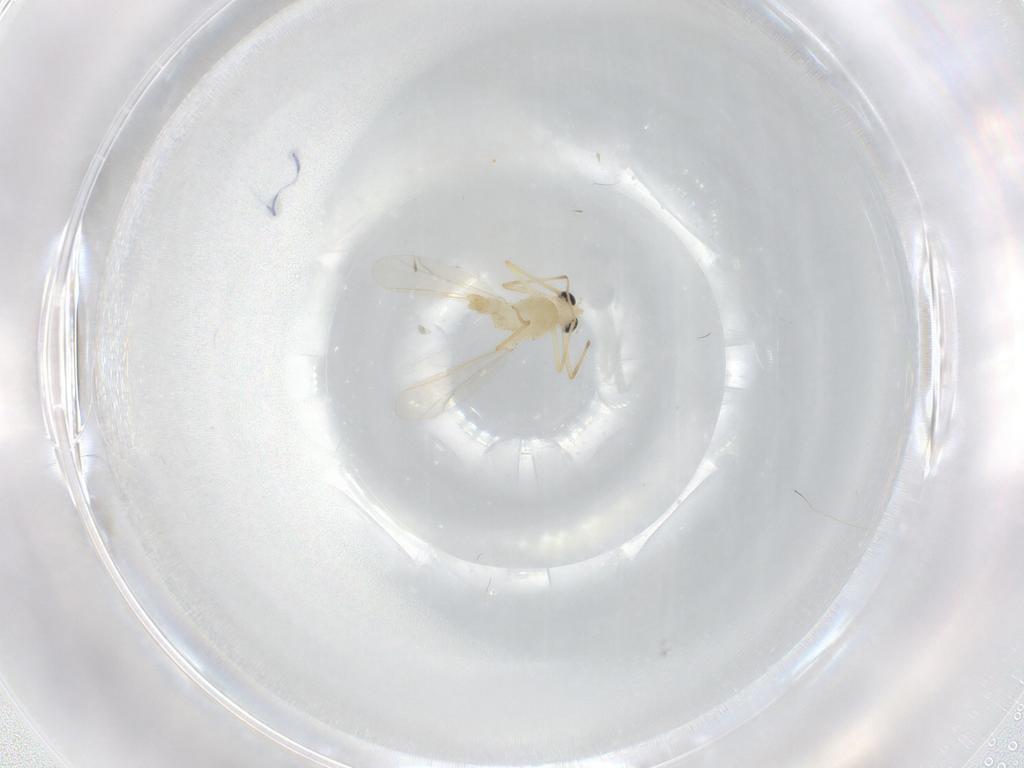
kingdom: Animalia
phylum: Arthropoda
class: Insecta
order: Diptera
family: Chironomidae
